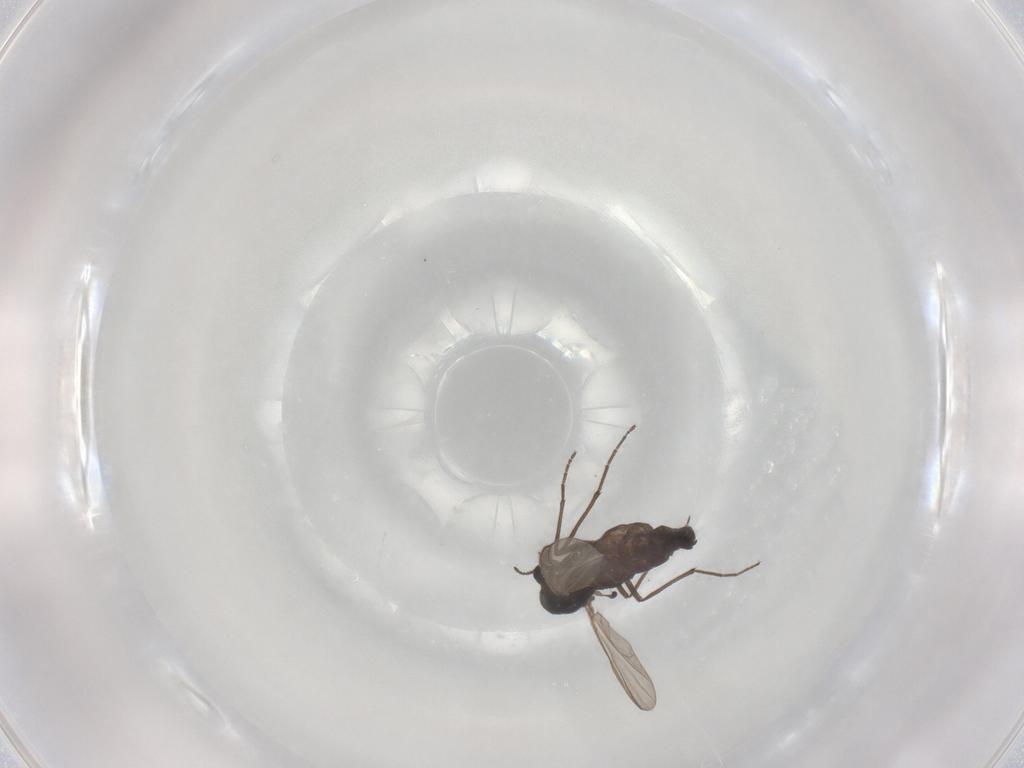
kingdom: Animalia
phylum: Arthropoda
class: Insecta
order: Diptera
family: Chironomidae
